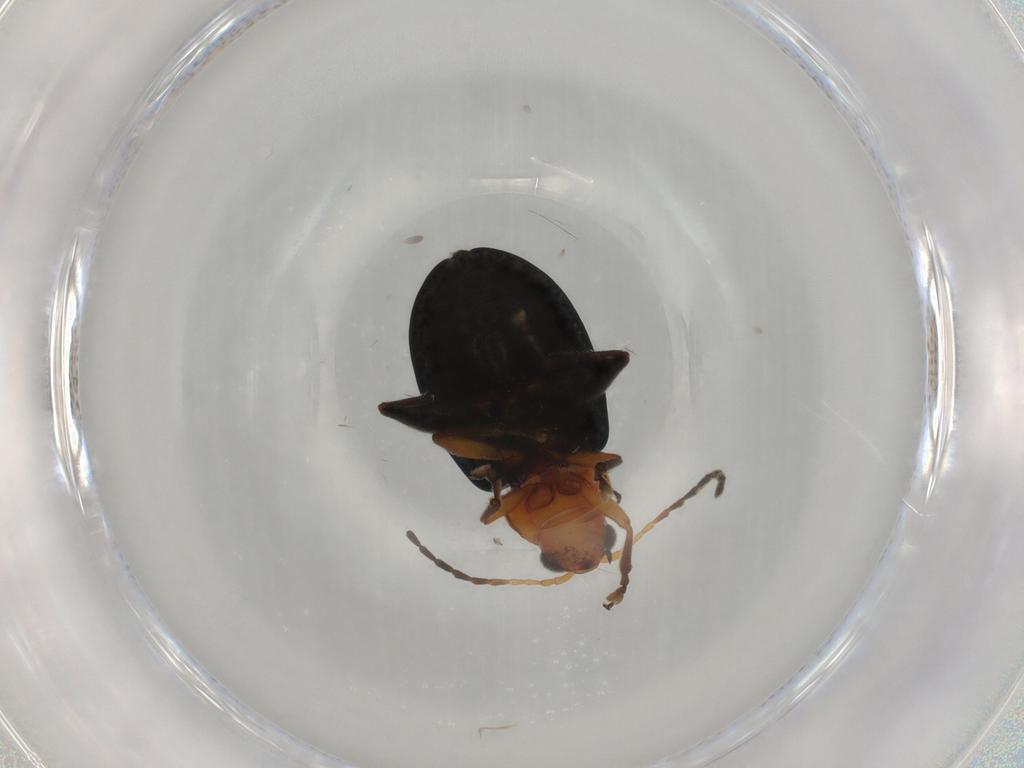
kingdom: Animalia
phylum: Arthropoda
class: Insecta
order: Coleoptera
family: Chrysomelidae
